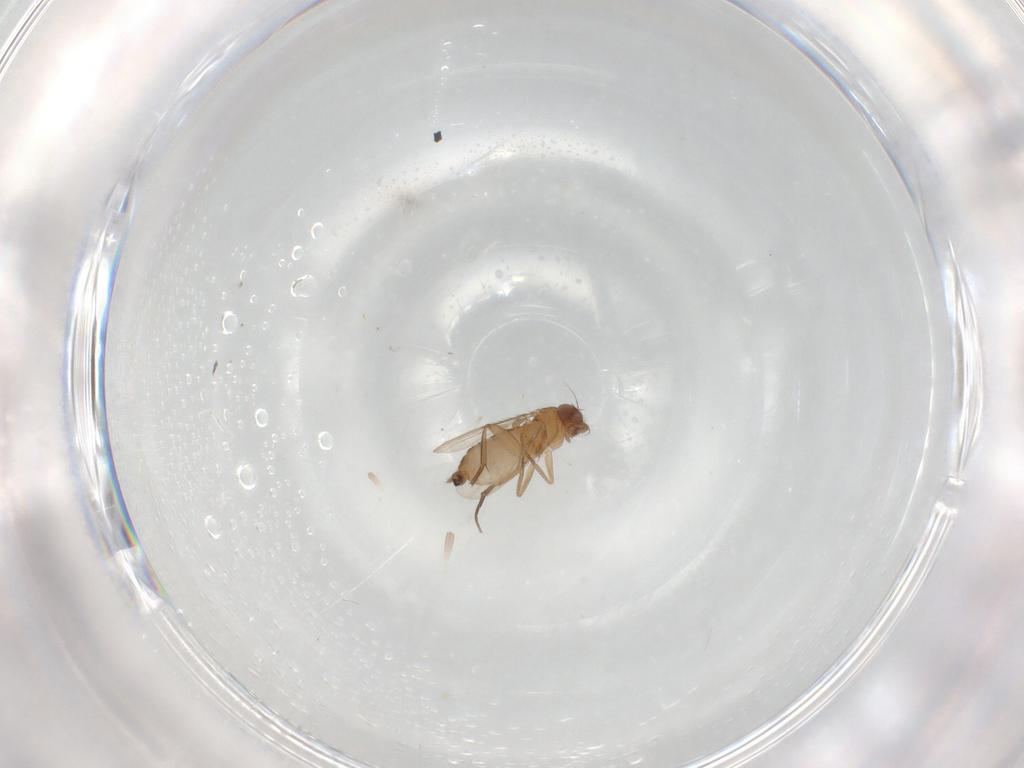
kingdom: Animalia
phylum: Arthropoda
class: Insecta
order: Diptera
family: Phoridae
